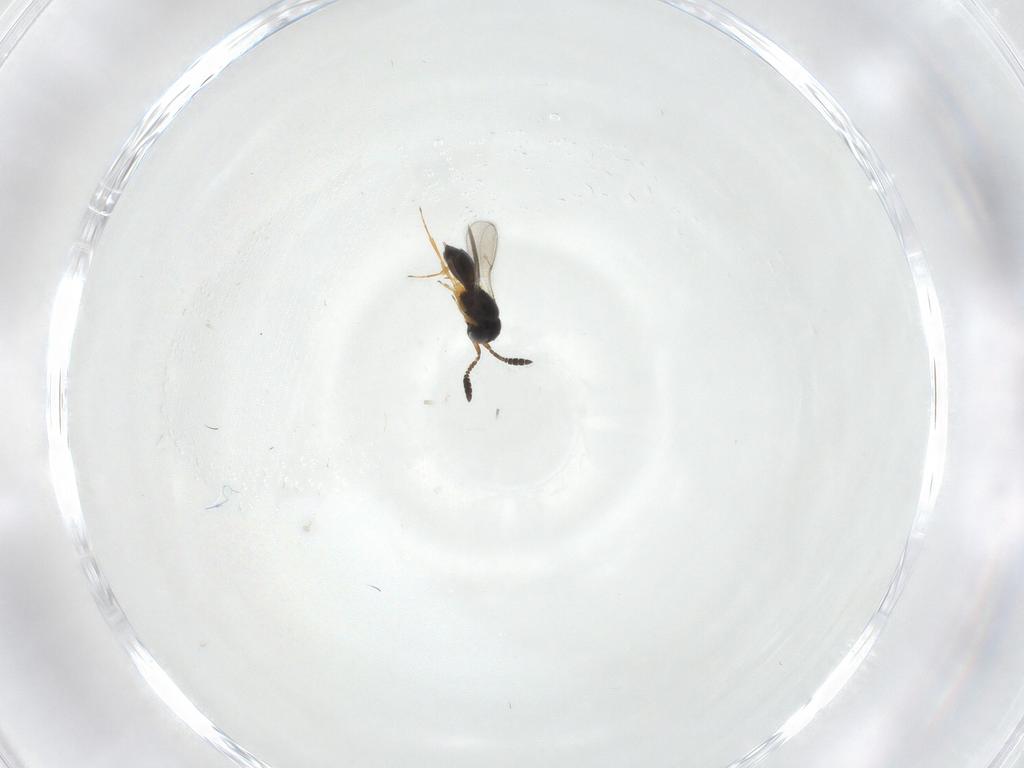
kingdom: Animalia
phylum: Arthropoda
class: Insecta
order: Hymenoptera
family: Scelionidae
